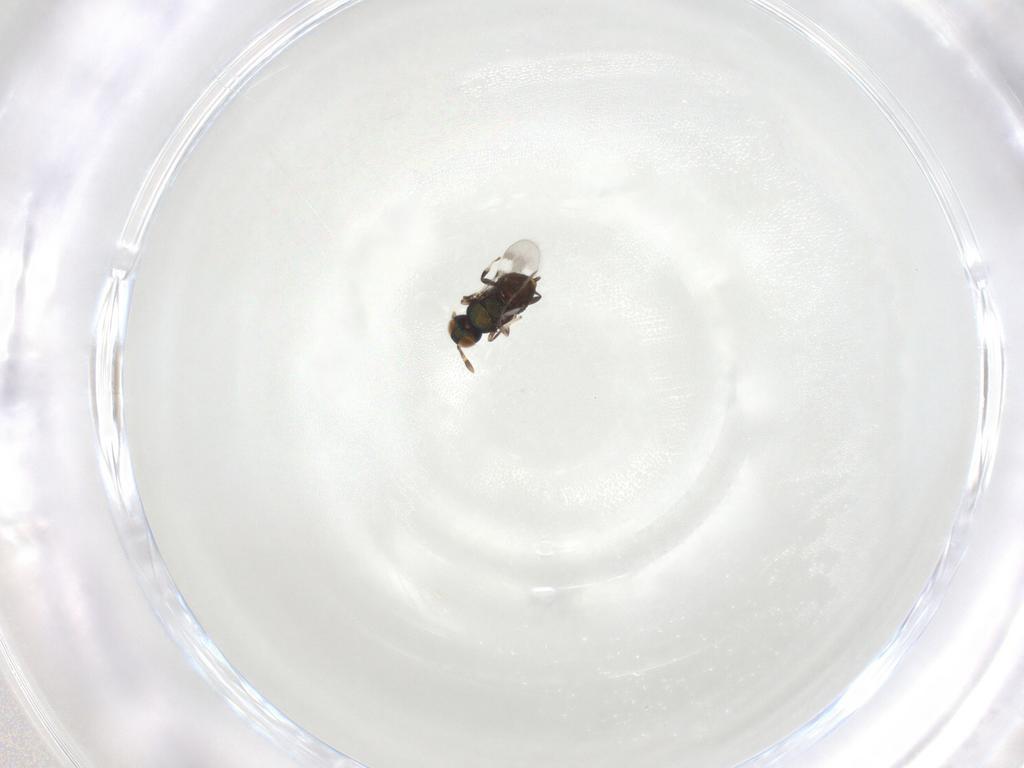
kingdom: Animalia
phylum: Arthropoda
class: Insecta
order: Hymenoptera
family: Encyrtidae
